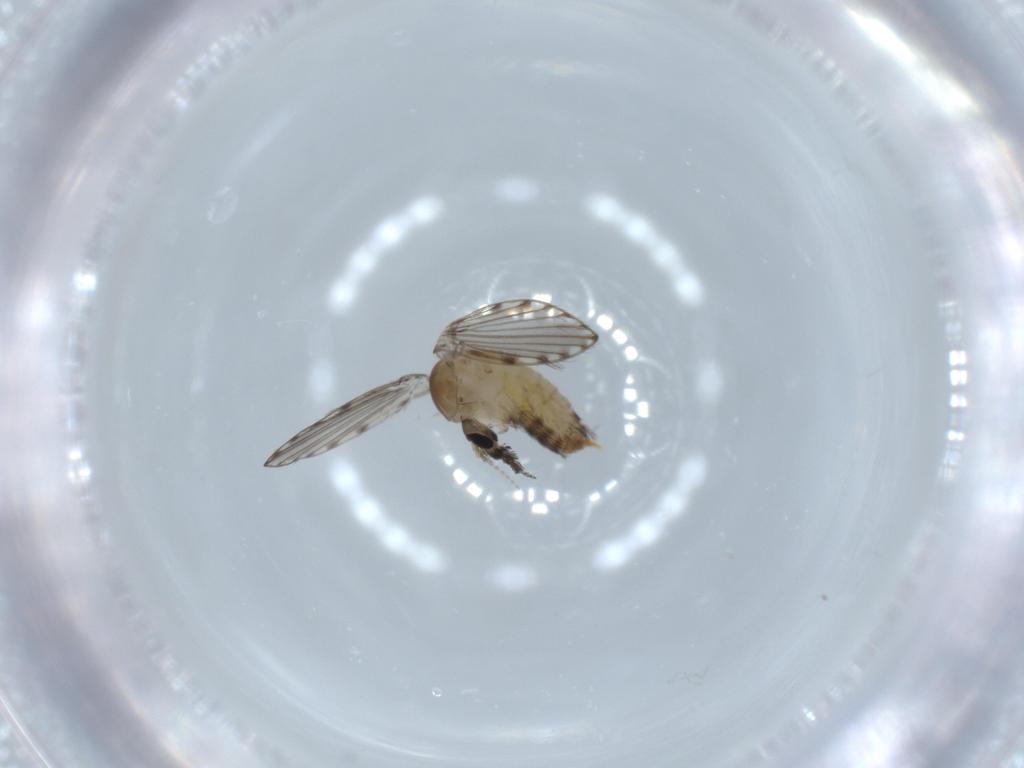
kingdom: Animalia
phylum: Arthropoda
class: Insecta
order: Diptera
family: Psychodidae
